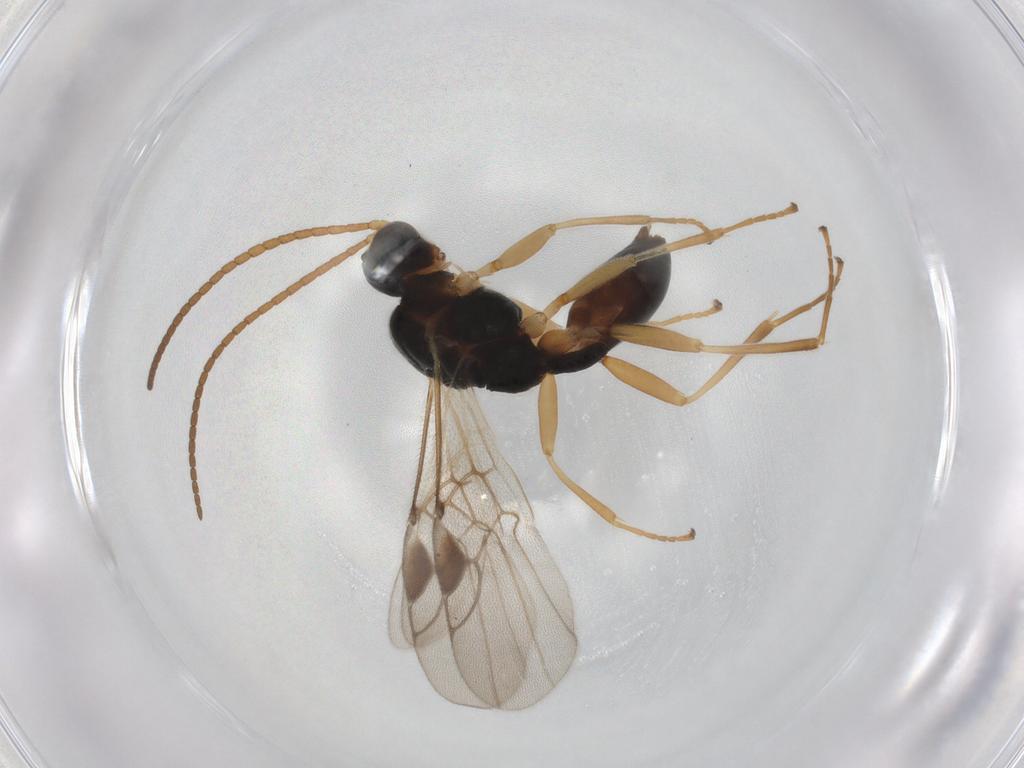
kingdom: Animalia
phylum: Arthropoda
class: Insecta
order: Hymenoptera
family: Braconidae
